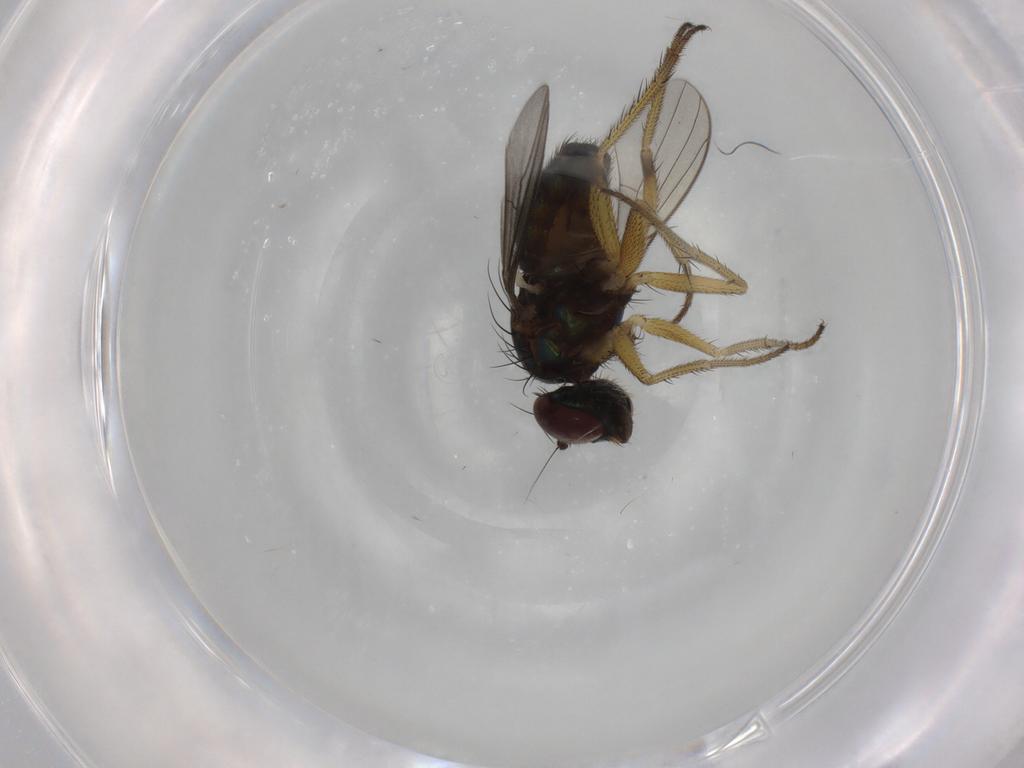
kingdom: Animalia
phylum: Arthropoda
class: Insecta
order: Diptera
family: Dolichopodidae
